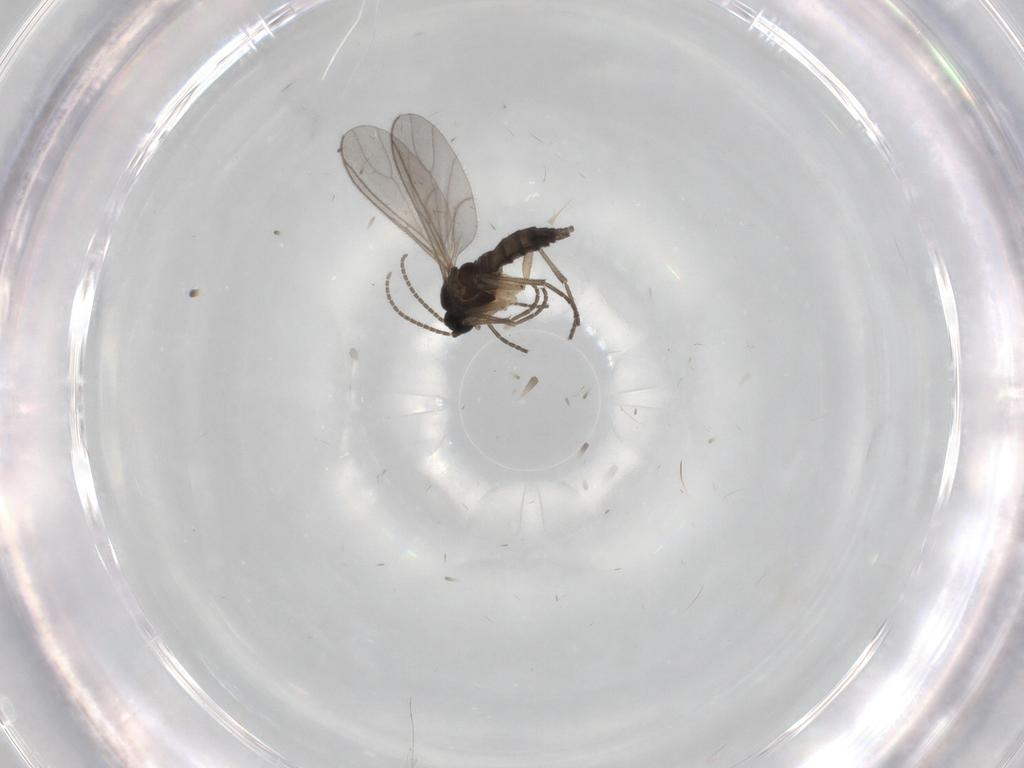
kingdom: Animalia
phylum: Arthropoda
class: Insecta
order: Diptera
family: Sciaridae
